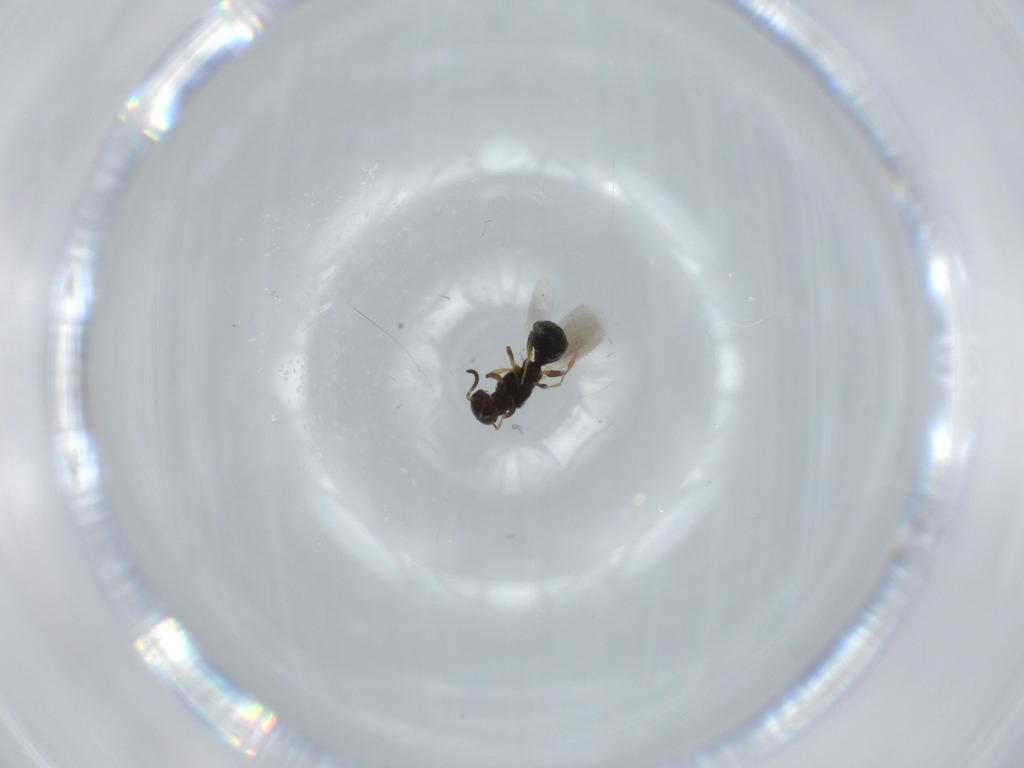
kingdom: Animalia
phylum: Arthropoda
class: Insecta
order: Hymenoptera
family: Bethylidae
